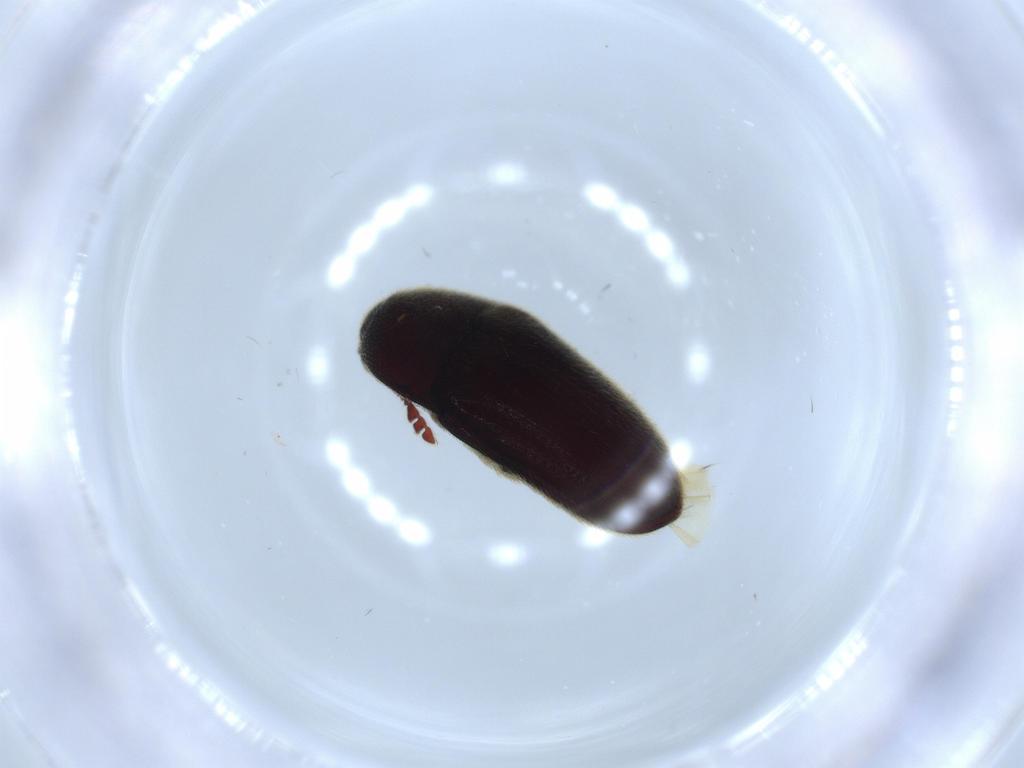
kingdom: Animalia
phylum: Arthropoda
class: Insecta
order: Coleoptera
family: Throscidae
